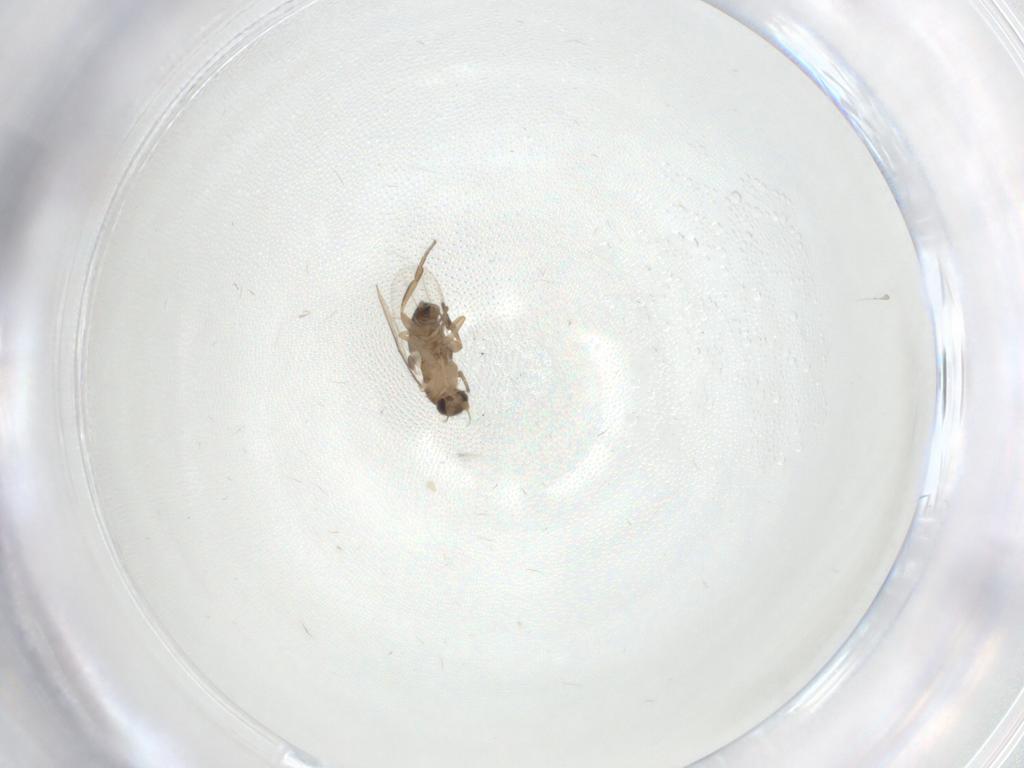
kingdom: Animalia
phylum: Arthropoda
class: Insecta
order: Diptera
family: Phoridae
